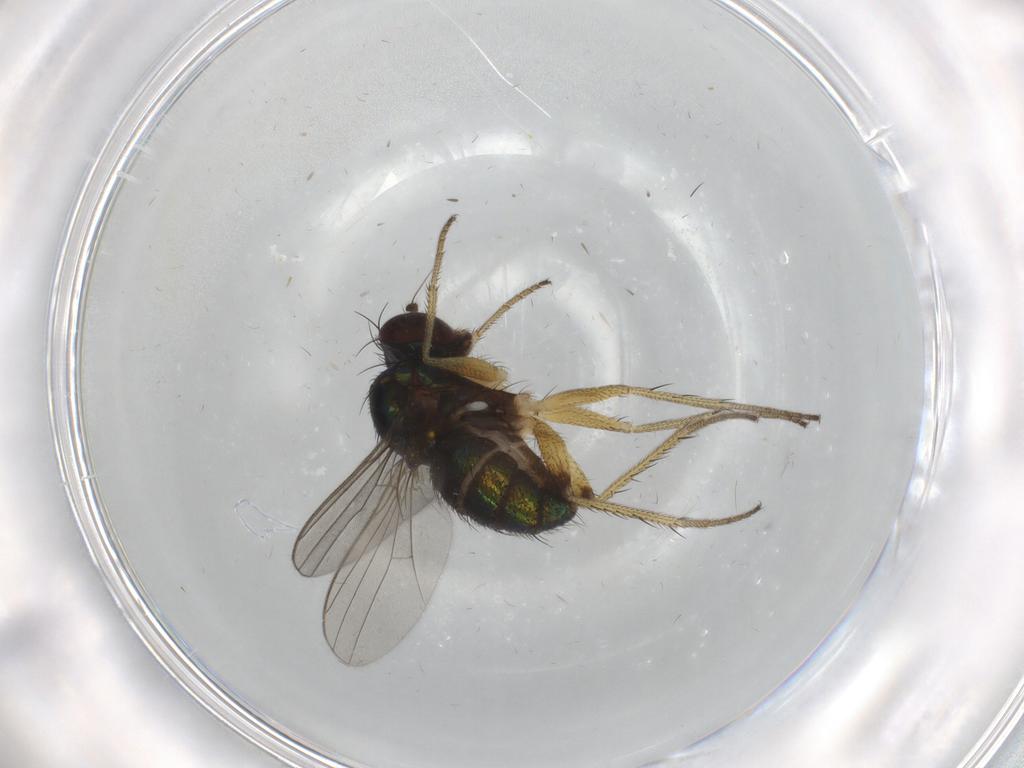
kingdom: Animalia
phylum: Arthropoda
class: Insecta
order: Diptera
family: Dolichopodidae
